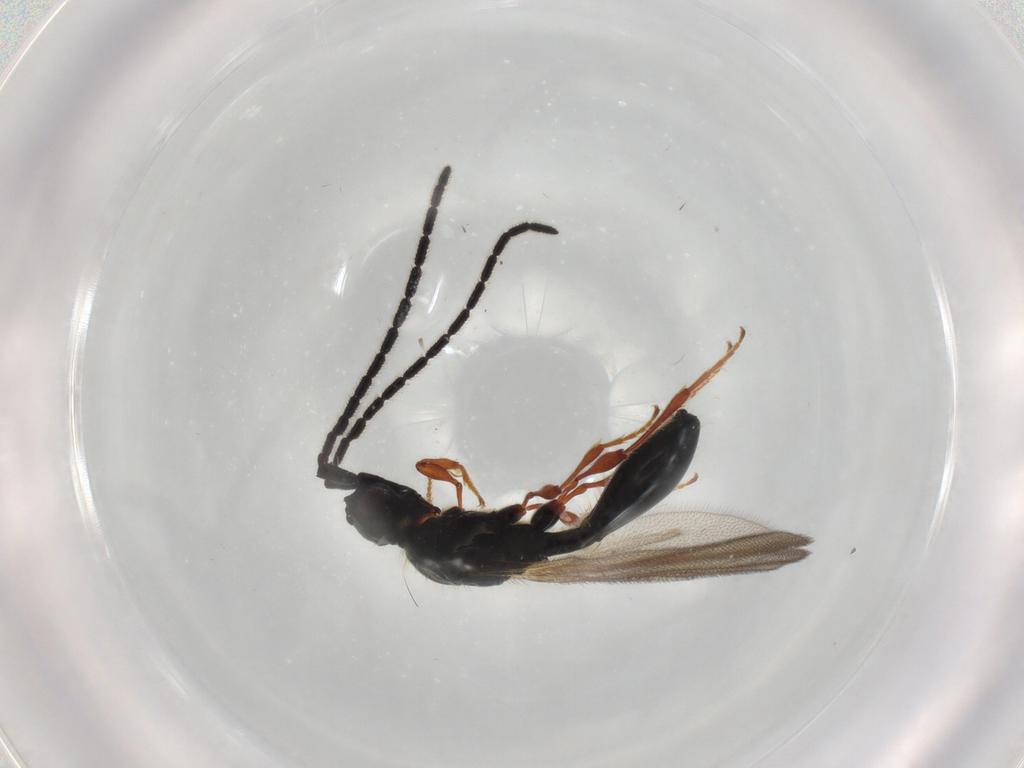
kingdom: Animalia
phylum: Arthropoda
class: Insecta
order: Hymenoptera
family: Diapriidae
